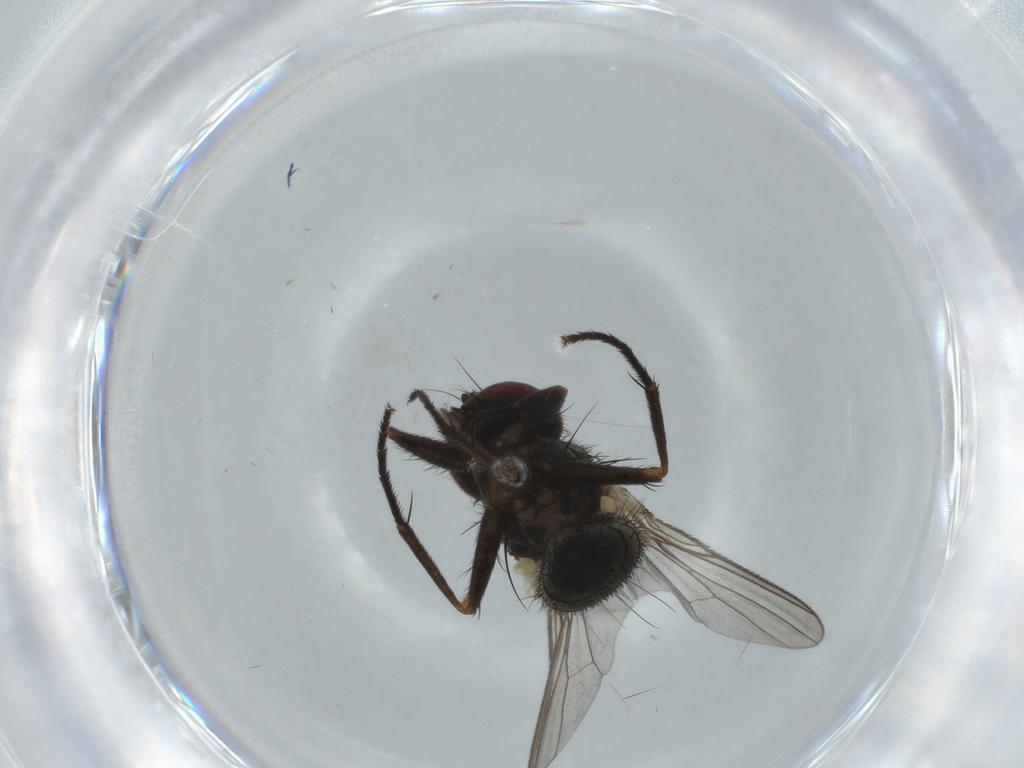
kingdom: Animalia
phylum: Arthropoda
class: Insecta
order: Diptera
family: Muscidae
